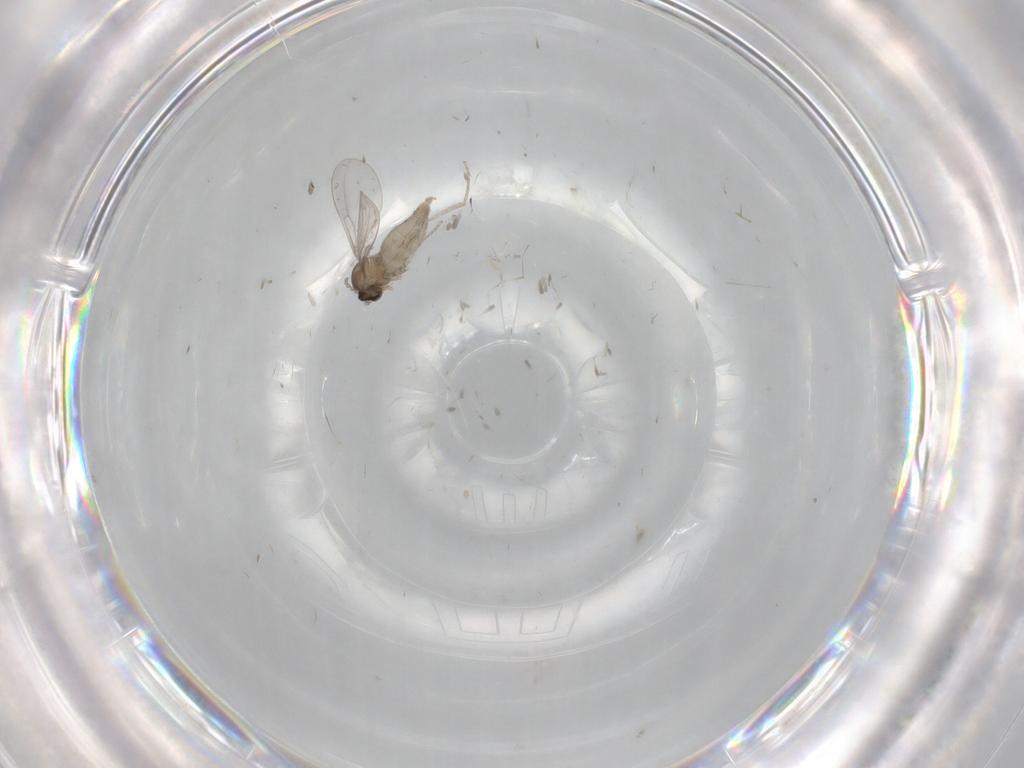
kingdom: Animalia
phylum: Arthropoda
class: Insecta
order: Diptera
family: Cecidomyiidae
